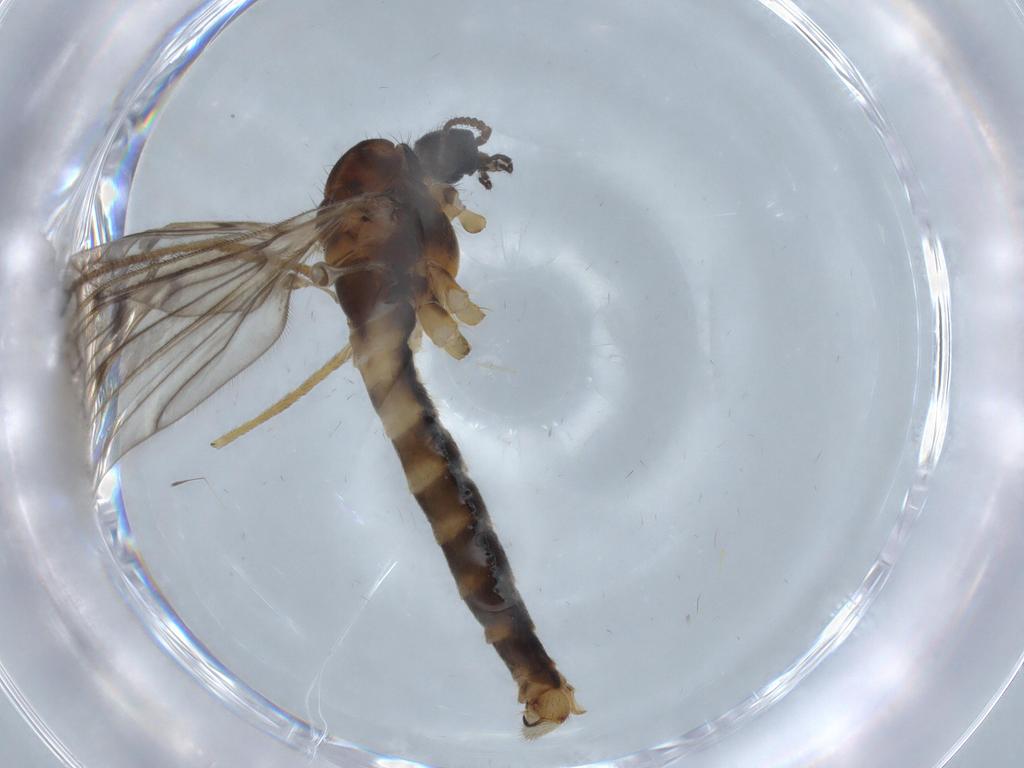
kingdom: Animalia
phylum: Arthropoda
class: Insecta
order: Diptera
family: Limoniidae
